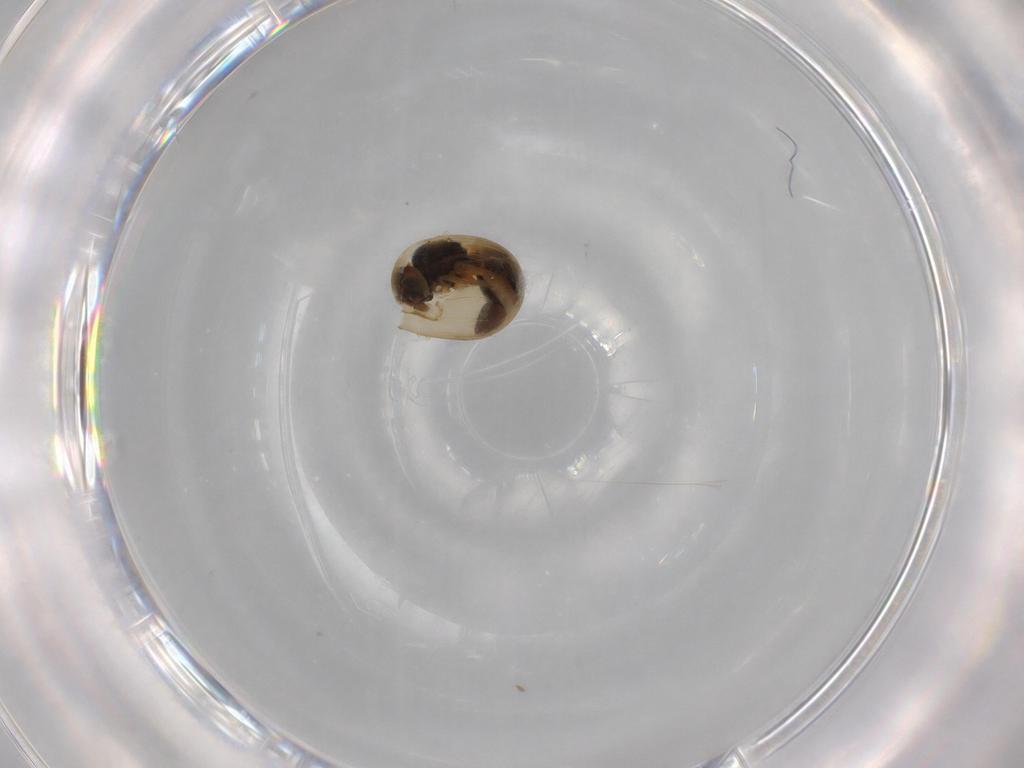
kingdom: Animalia
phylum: Arthropoda
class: Insecta
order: Hymenoptera
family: Scelionidae
